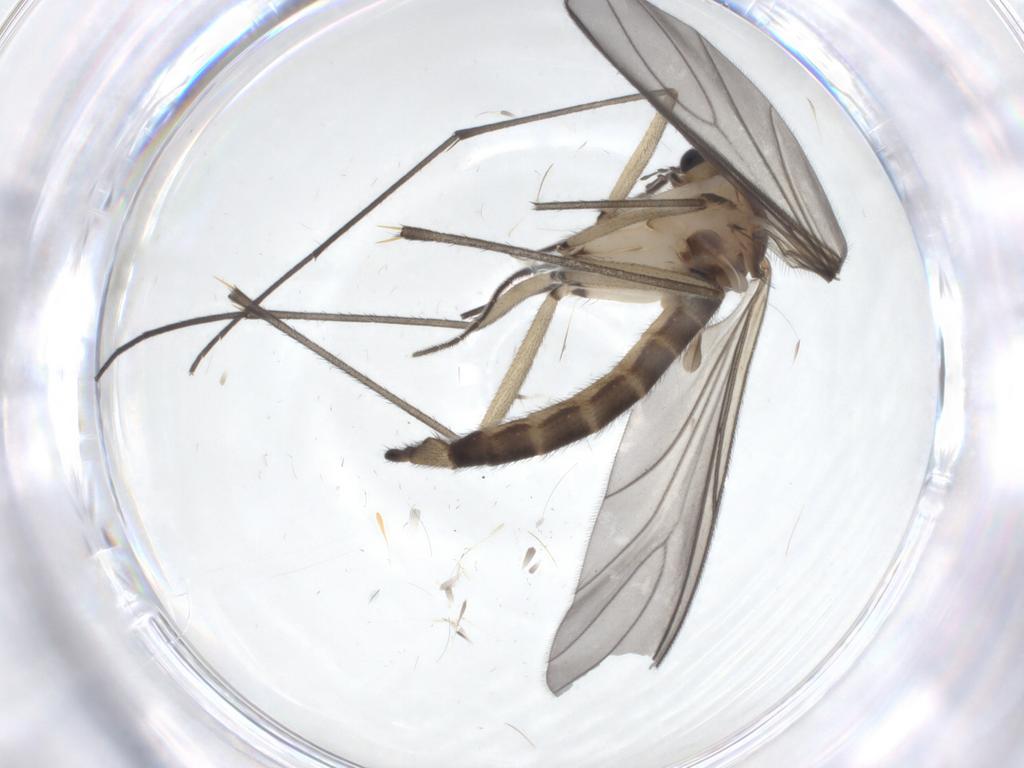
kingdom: Animalia
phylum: Arthropoda
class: Insecta
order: Diptera
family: Sciaridae
